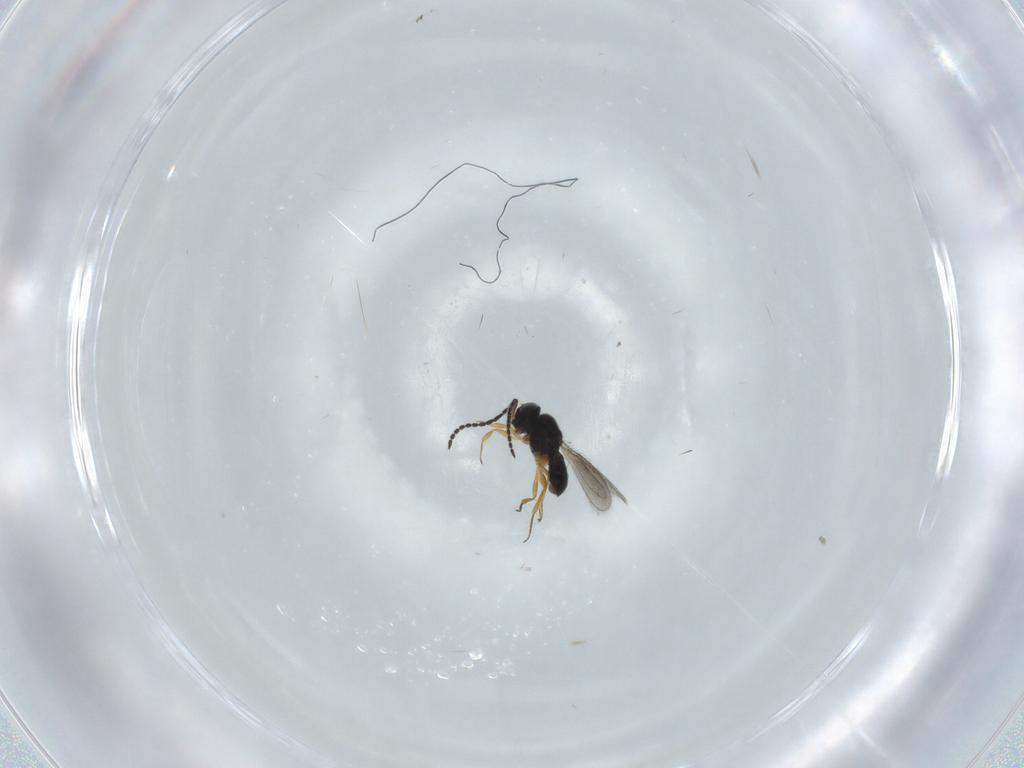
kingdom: Animalia
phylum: Arthropoda
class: Insecta
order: Hymenoptera
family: Scelionidae
